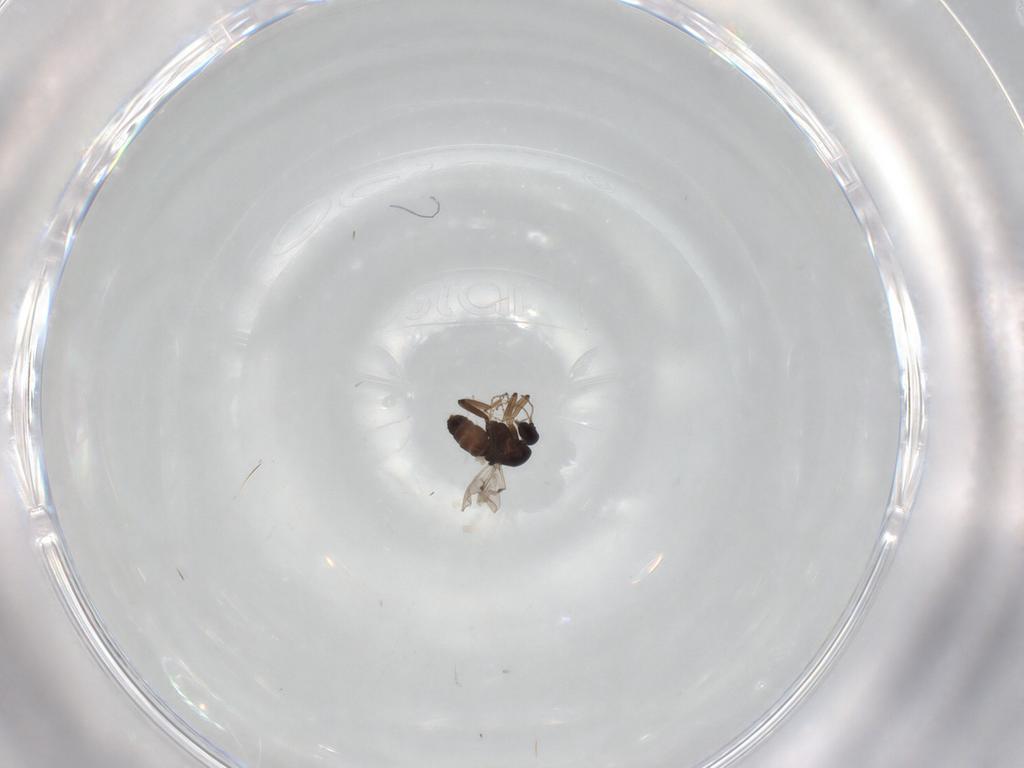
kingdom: Animalia
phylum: Arthropoda
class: Insecta
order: Diptera
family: Ceratopogonidae
